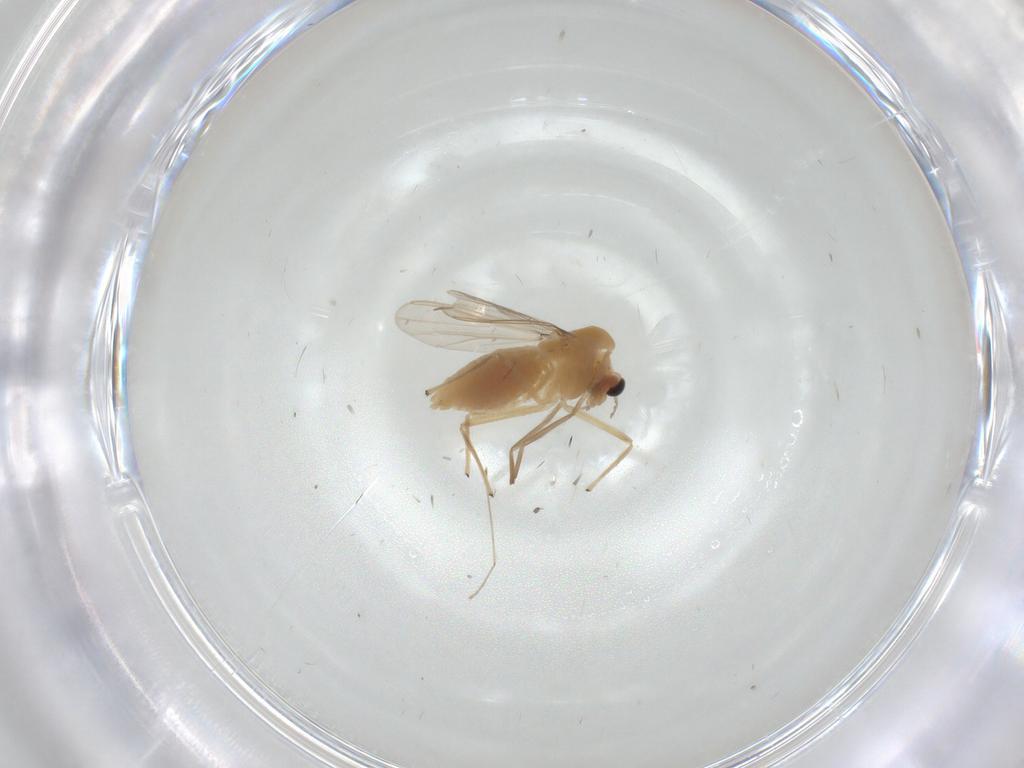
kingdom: Animalia
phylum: Arthropoda
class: Insecta
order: Diptera
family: Chironomidae
